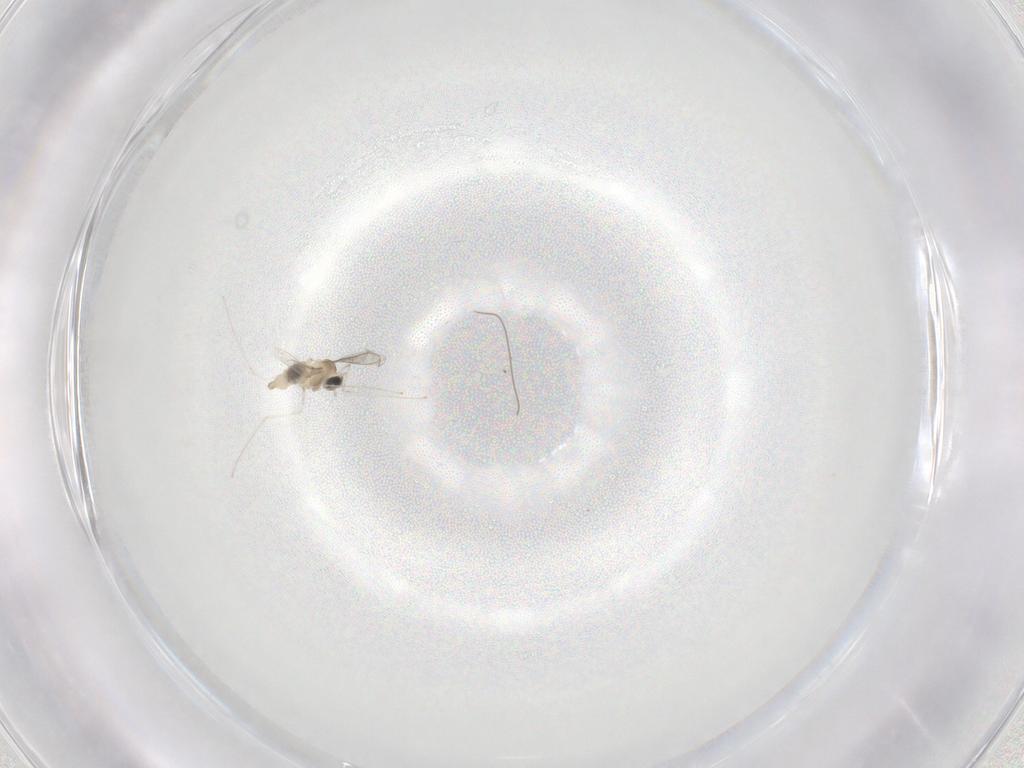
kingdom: Animalia
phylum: Arthropoda
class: Insecta
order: Diptera
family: Cecidomyiidae
